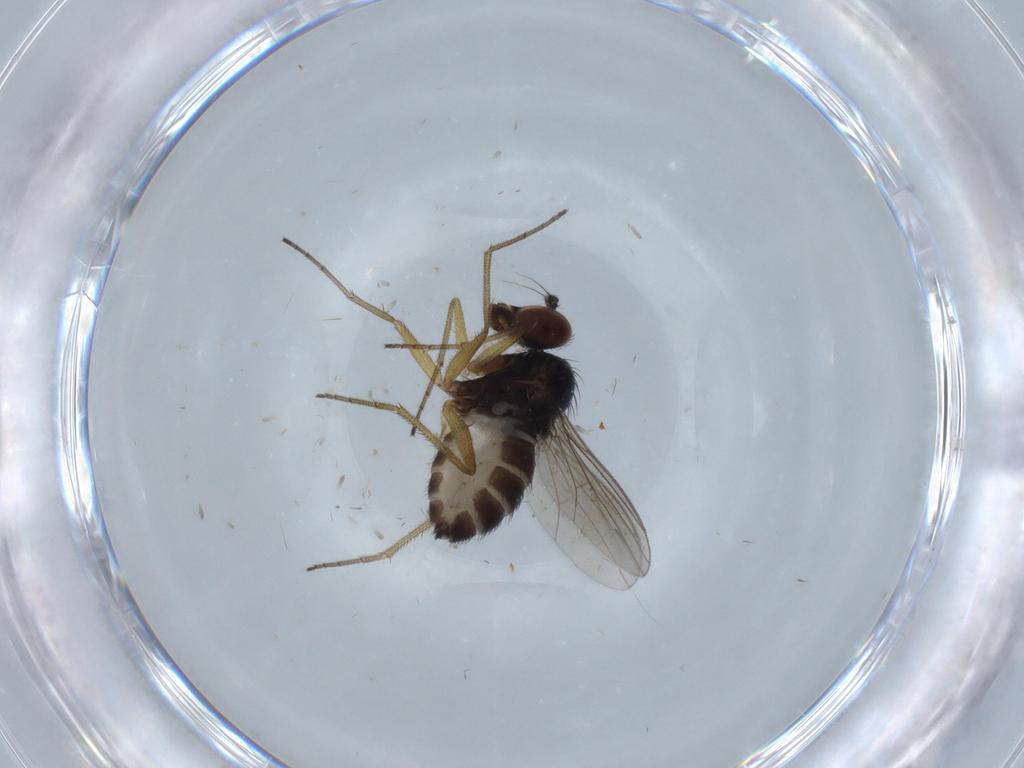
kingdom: Animalia
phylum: Arthropoda
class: Insecta
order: Diptera
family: Dolichopodidae
